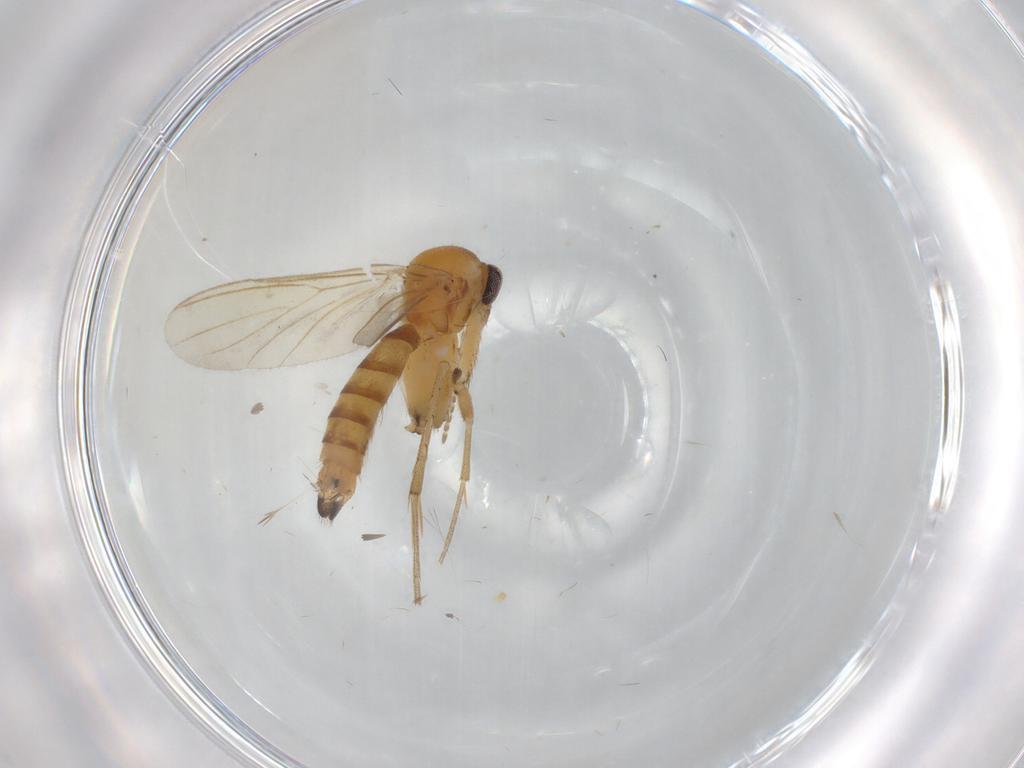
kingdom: Animalia
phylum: Arthropoda
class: Insecta
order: Diptera
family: Mycetophilidae
